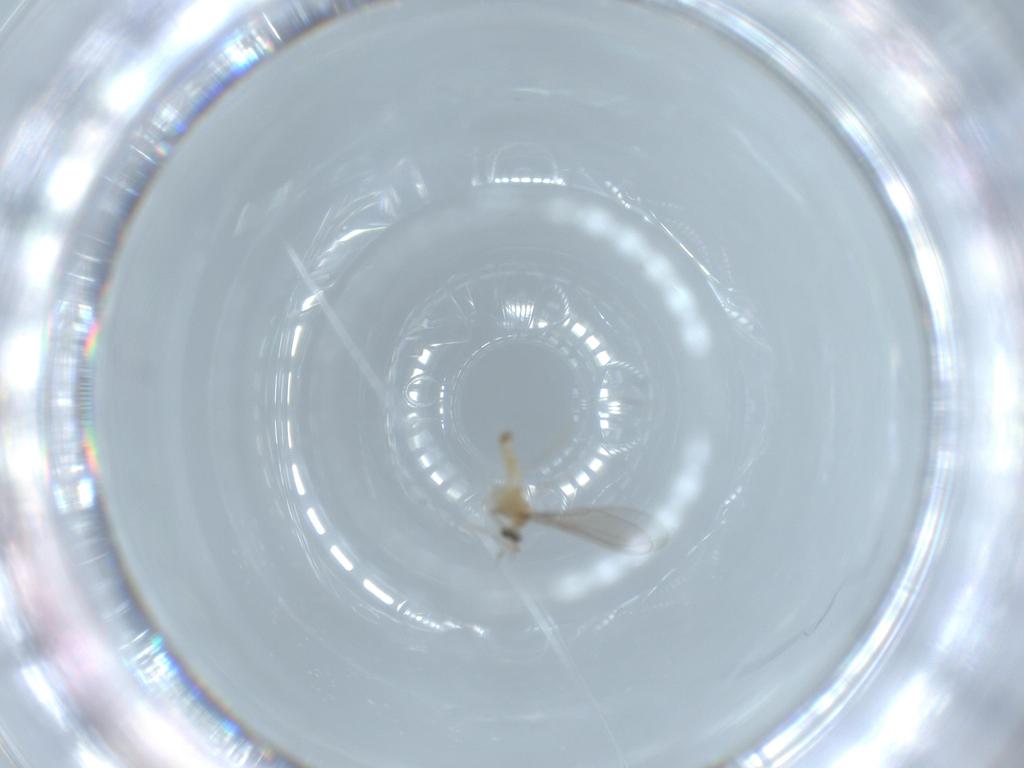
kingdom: Animalia
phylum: Arthropoda
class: Insecta
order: Diptera
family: Cecidomyiidae
